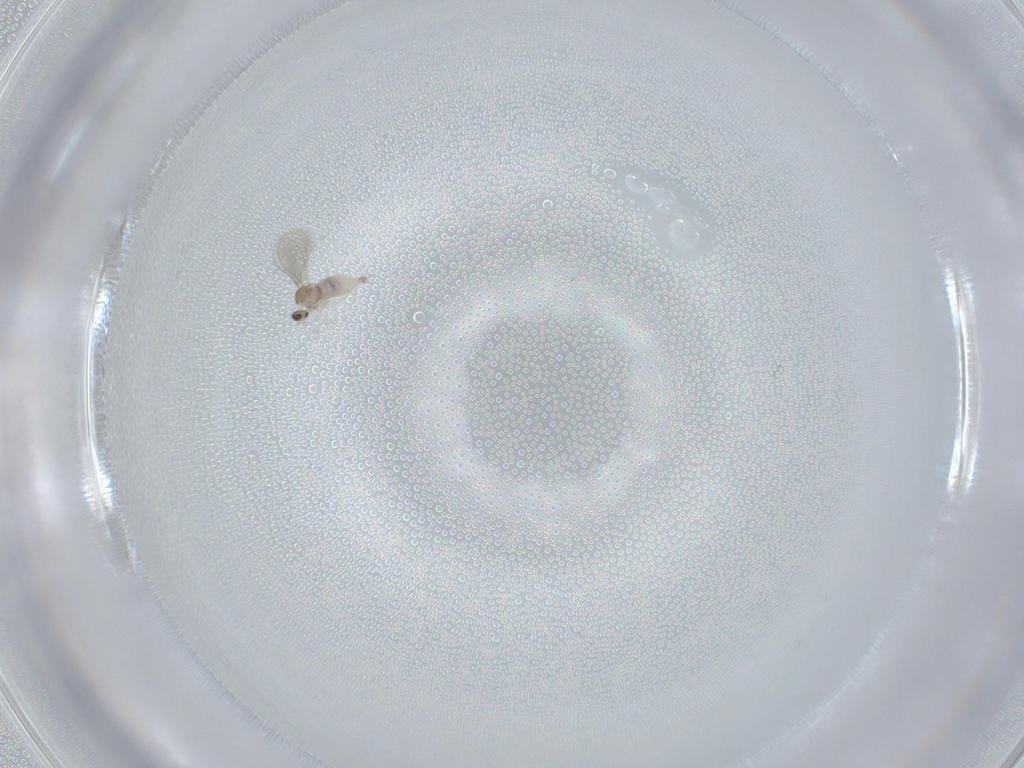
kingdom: Animalia
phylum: Arthropoda
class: Insecta
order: Diptera
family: Cecidomyiidae
